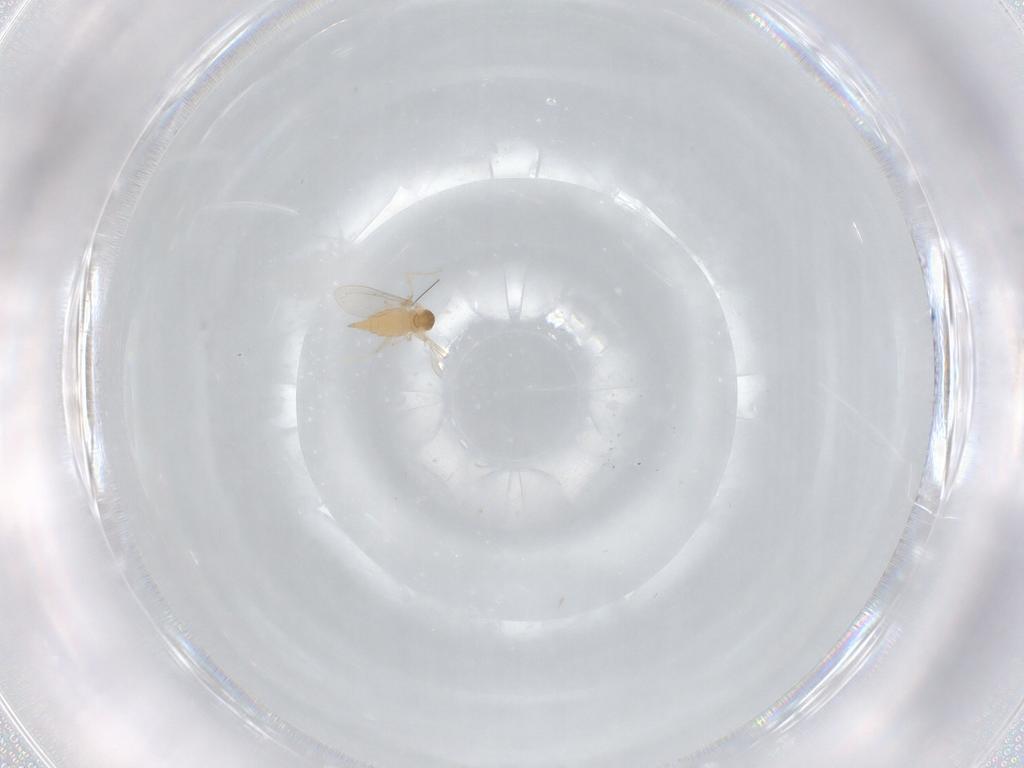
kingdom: Animalia
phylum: Arthropoda
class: Insecta
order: Diptera
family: Cecidomyiidae
